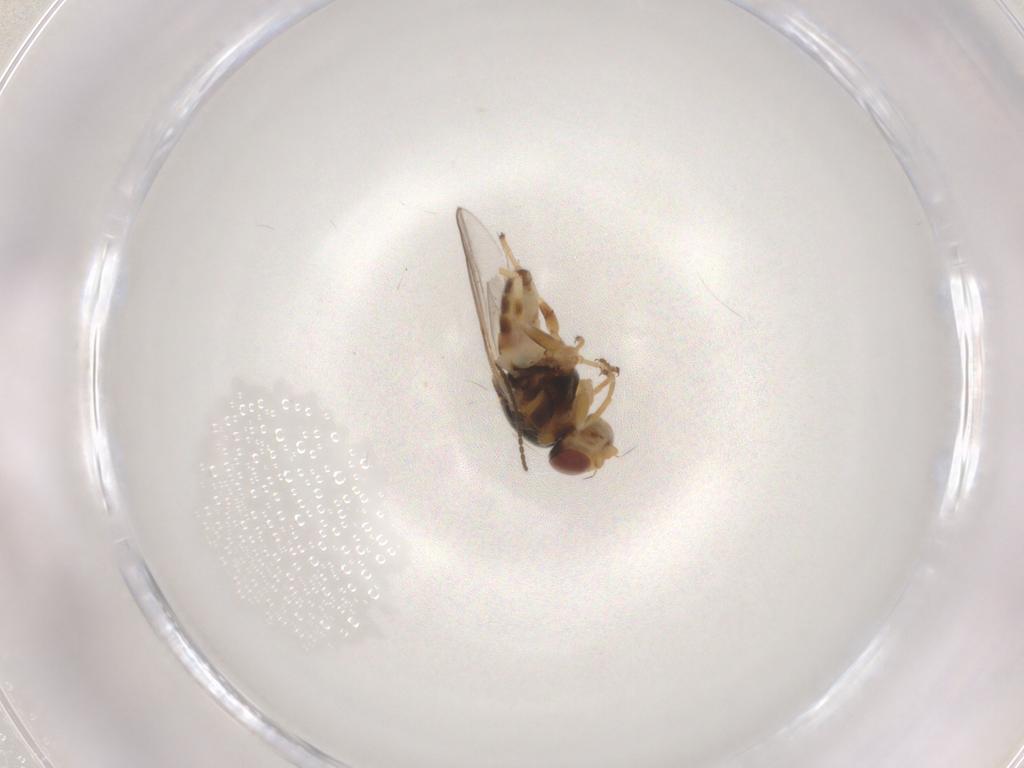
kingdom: Animalia
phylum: Arthropoda
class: Insecta
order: Diptera
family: Chloropidae
